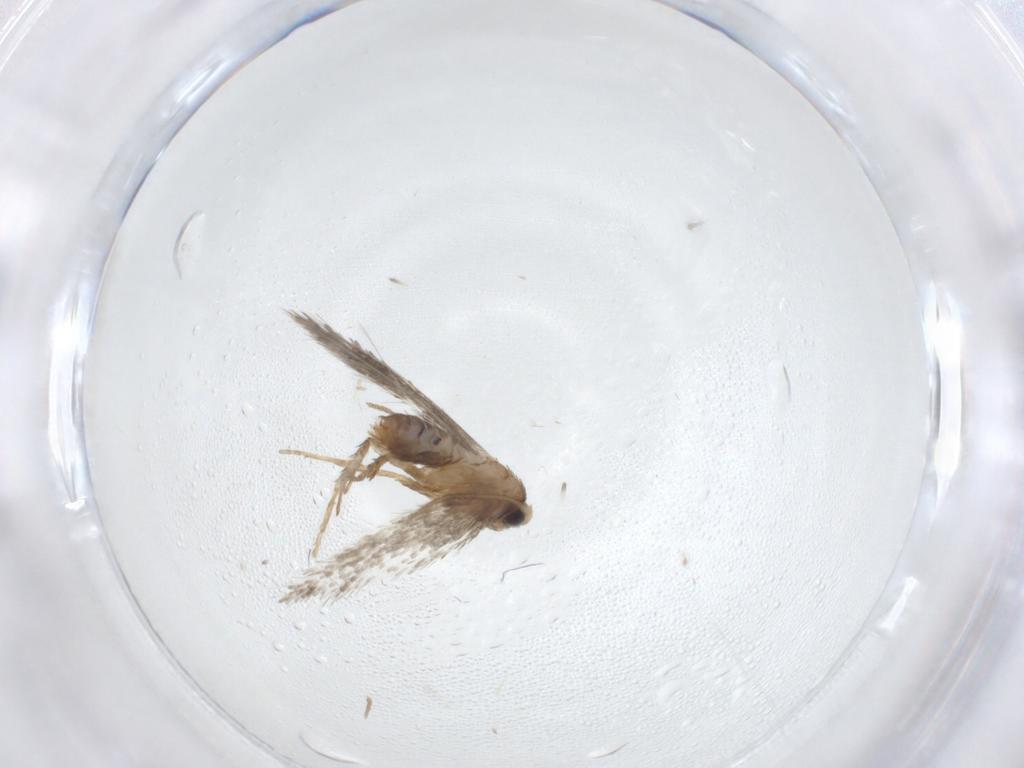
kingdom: Animalia
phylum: Arthropoda
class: Insecta
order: Lepidoptera
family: Nepticulidae
